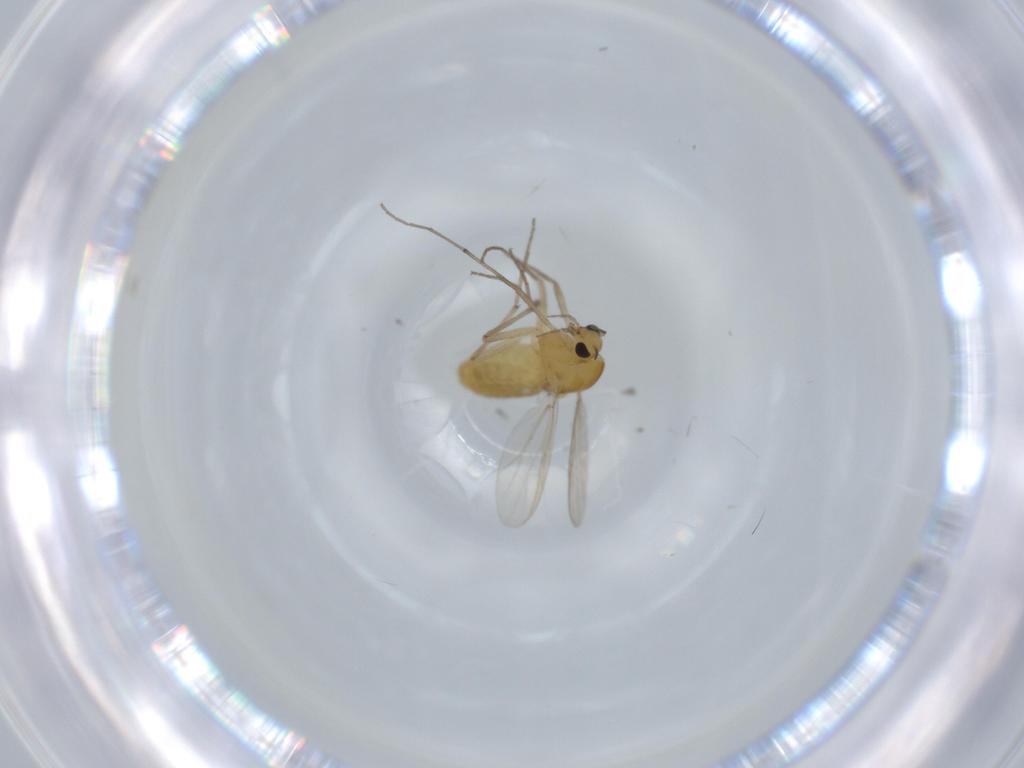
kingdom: Animalia
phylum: Arthropoda
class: Insecta
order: Diptera
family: Chironomidae
